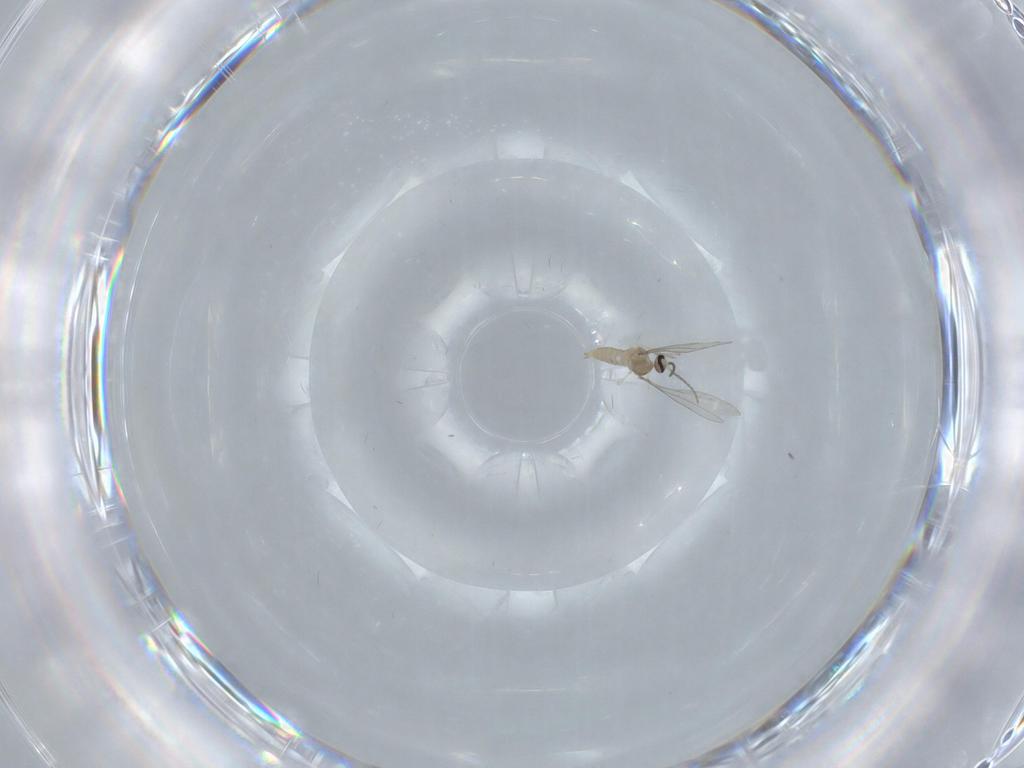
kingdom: Animalia
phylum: Arthropoda
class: Insecta
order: Diptera
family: Cecidomyiidae
